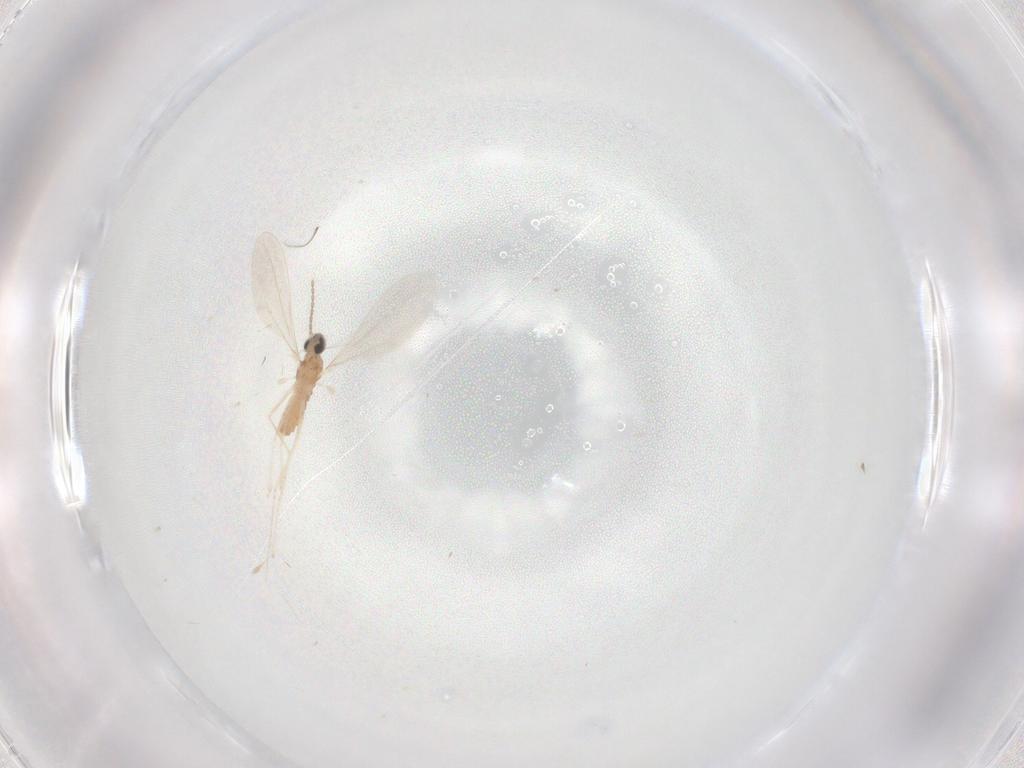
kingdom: Animalia
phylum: Arthropoda
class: Insecta
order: Diptera
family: Cecidomyiidae
